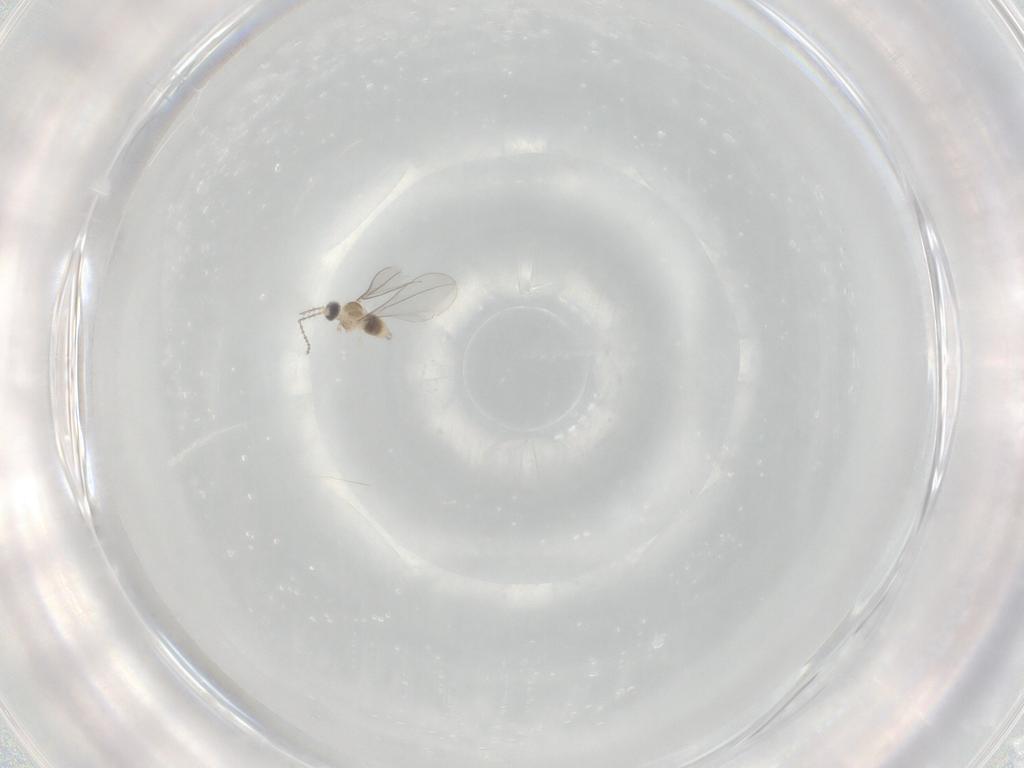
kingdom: Animalia
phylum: Arthropoda
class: Insecta
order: Diptera
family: Cecidomyiidae
